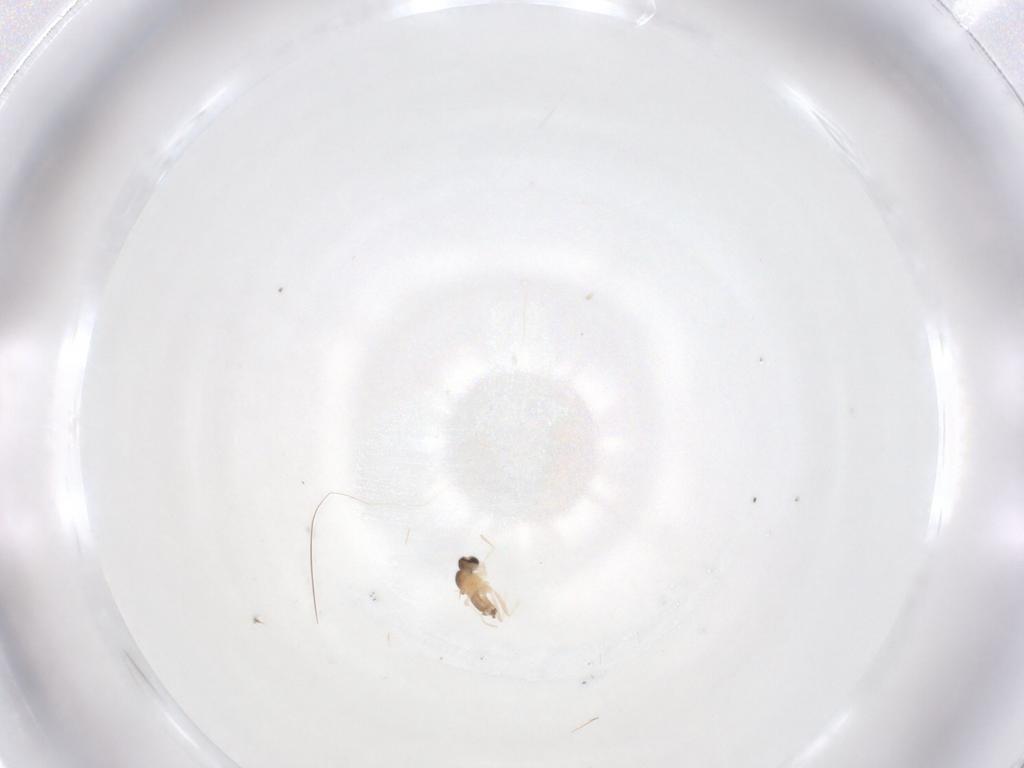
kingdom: Animalia
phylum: Arthropoda
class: Insecta
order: Diptera
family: Cecidomyiidae
